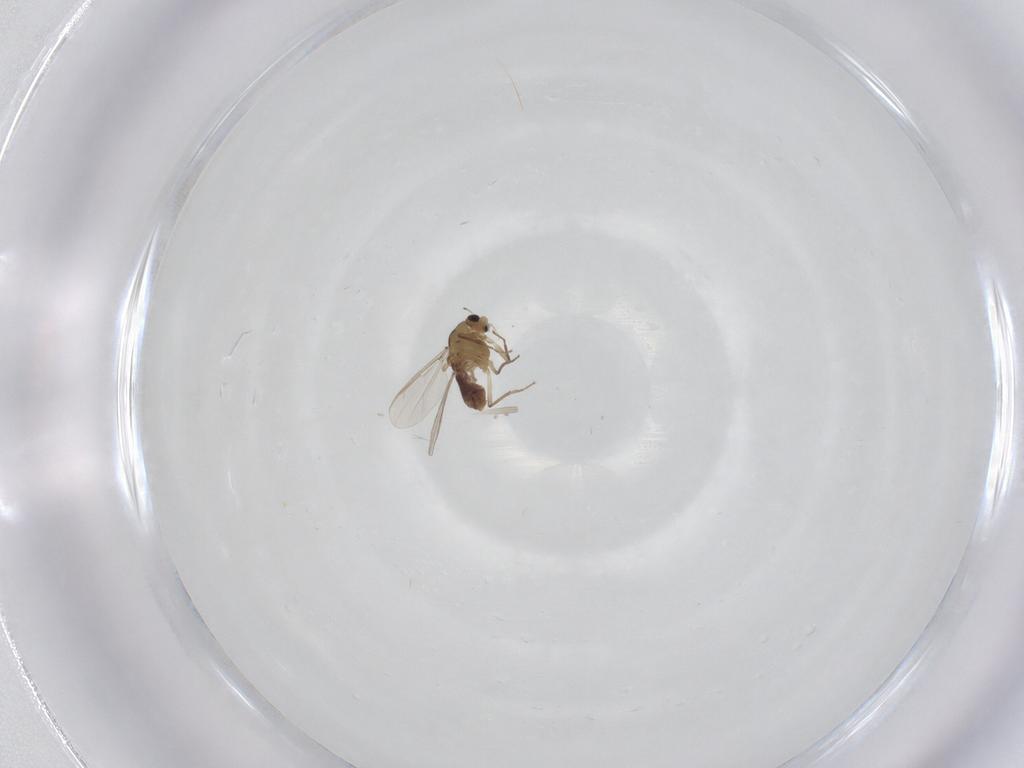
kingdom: Animalia
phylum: Arthropoda
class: Insecta
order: Diptera
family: Chironomidae
